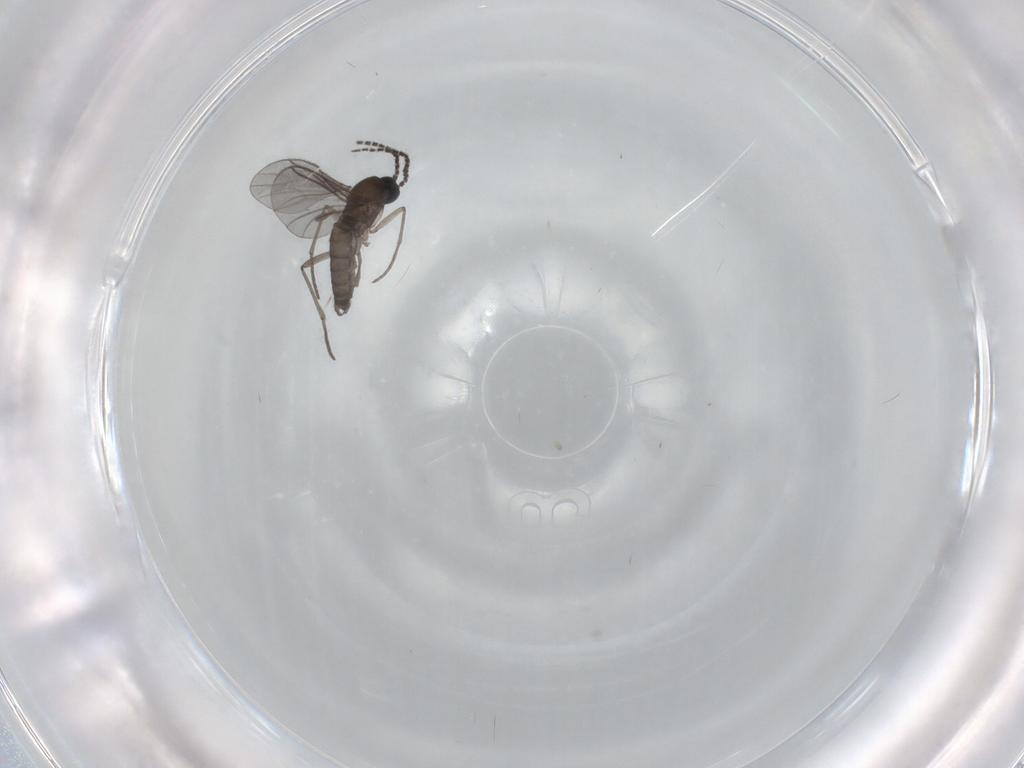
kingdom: Animalia
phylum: Arthropoda
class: Insecta
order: Diptera
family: Sciaridae
